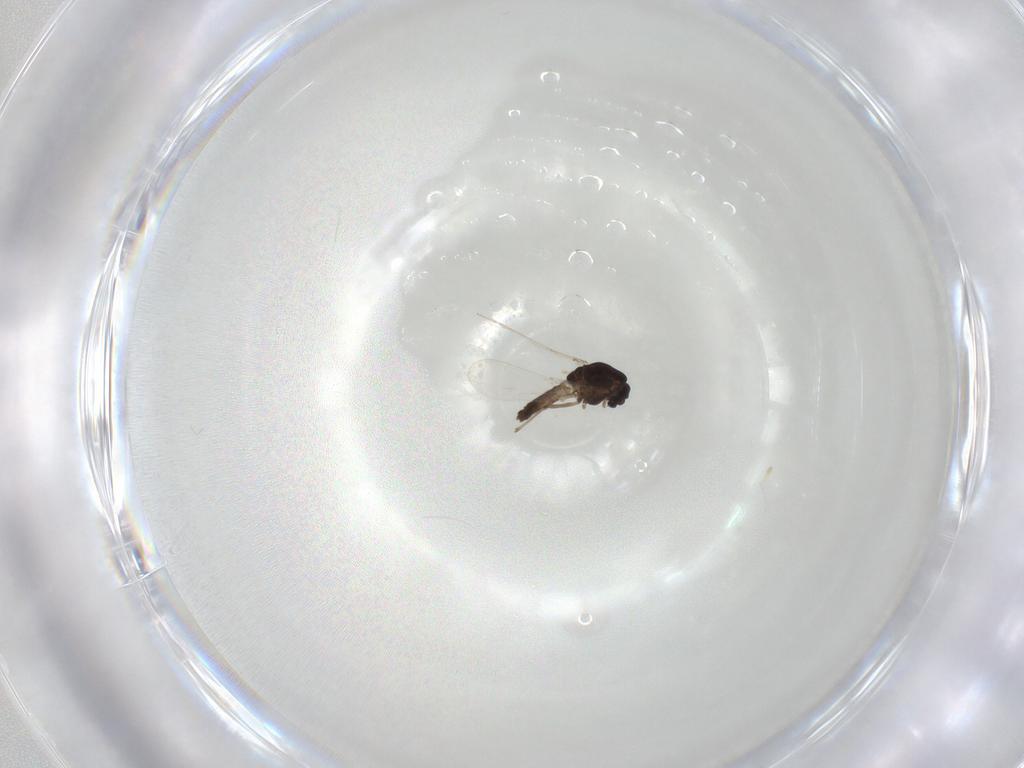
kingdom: Animalia
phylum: Arthropoda
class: Insecta
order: Diptera
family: Chironomidae
